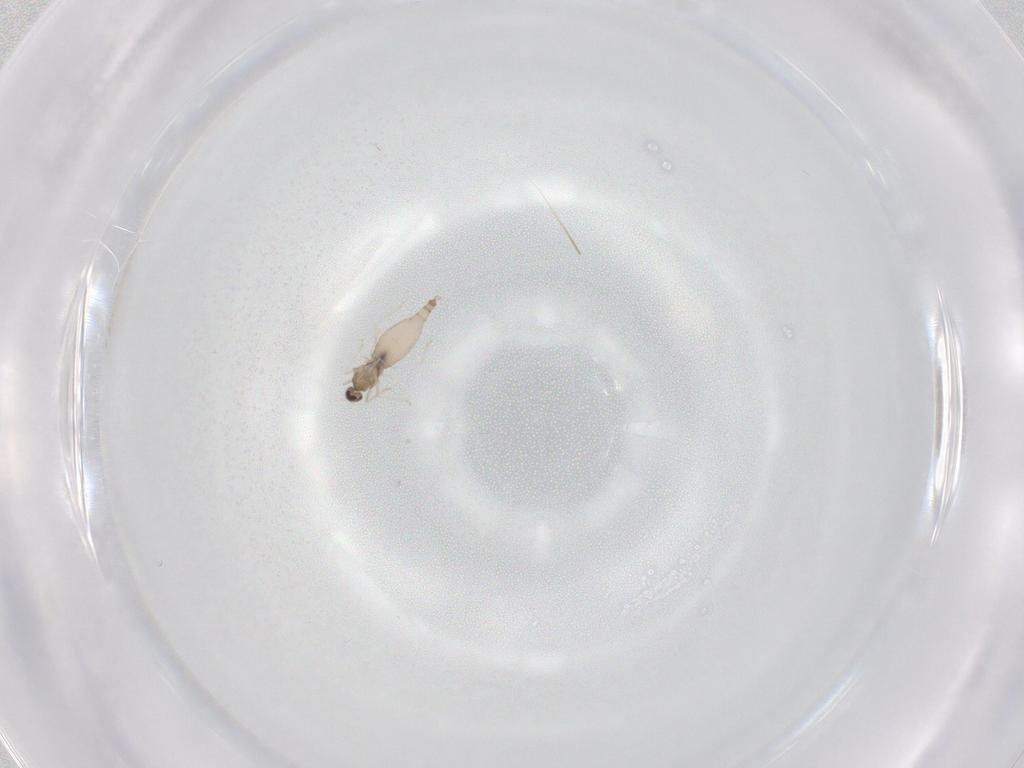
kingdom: Animalia
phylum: Arthropoda
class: Insecta
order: Diptera
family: Cecidomyiidae
